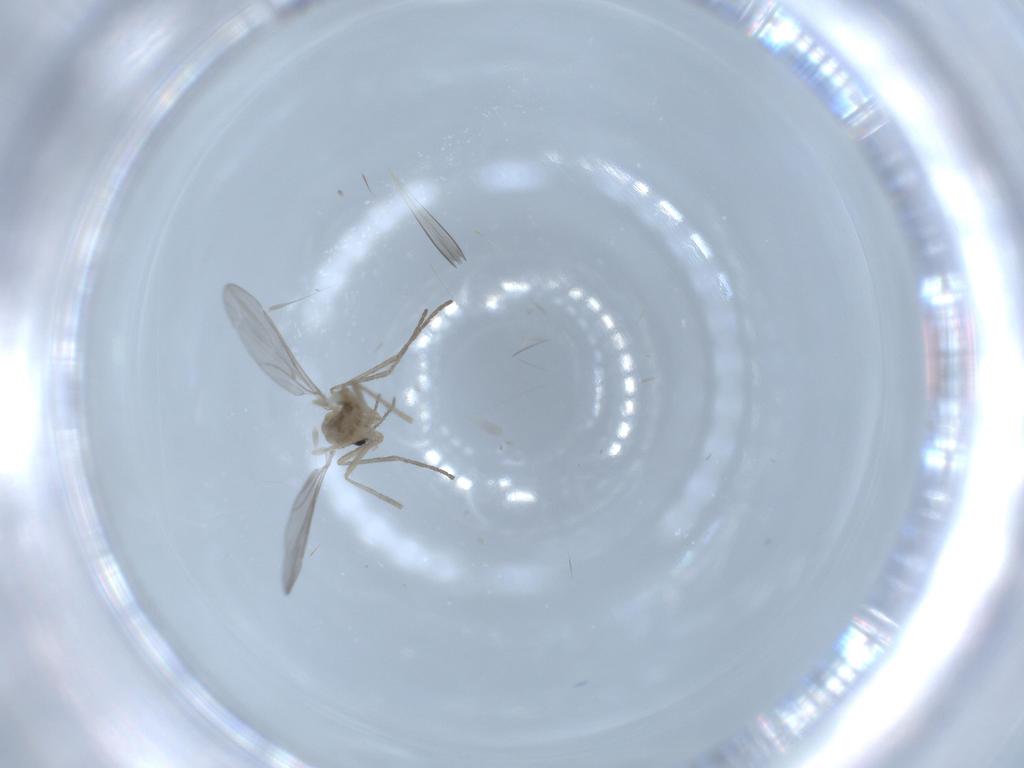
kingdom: Animalia
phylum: Arthropoda
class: Insecta
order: Diptera
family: Cecidomyiidae
